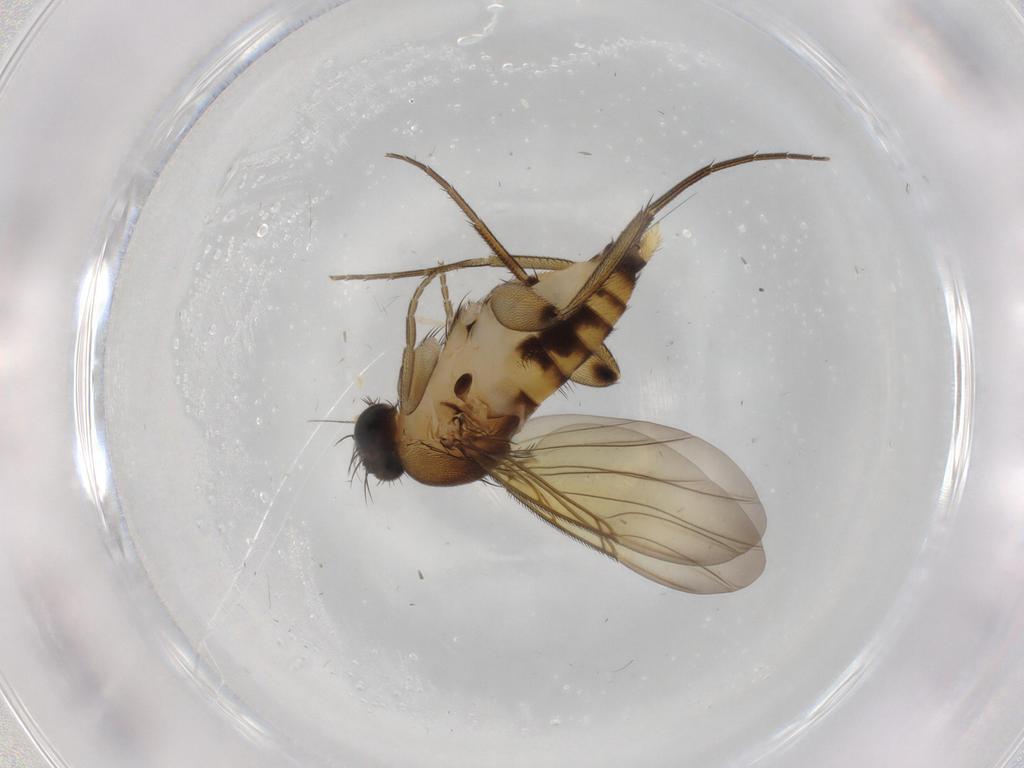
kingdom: Animalia
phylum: Arthropoda
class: Insecta
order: Diptera
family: Phoridae
